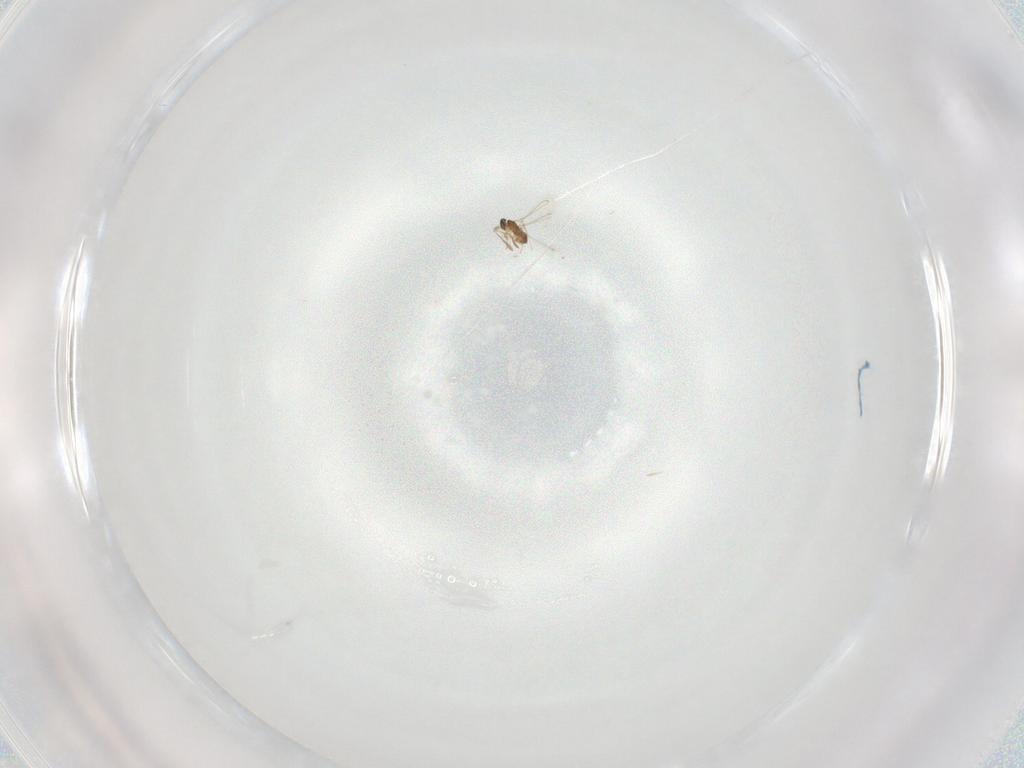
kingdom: Animalia
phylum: Arthropoda
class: Insecta
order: Hymenoptera
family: Mymaridae
